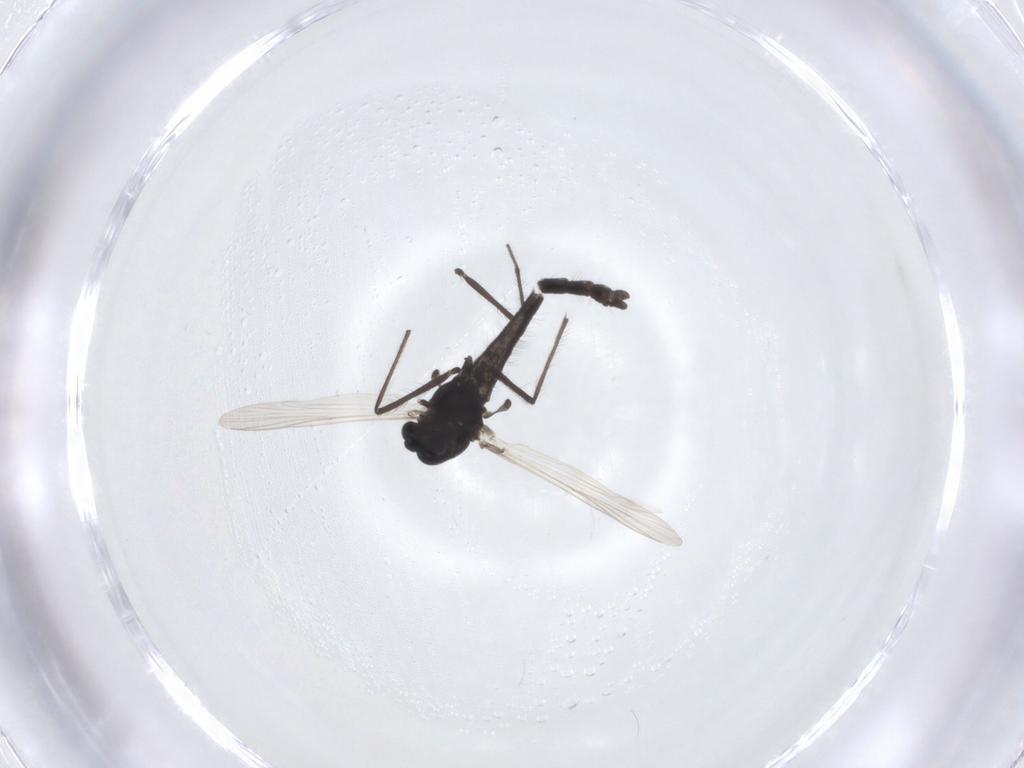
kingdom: Animalia
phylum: Arthropoda
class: Insecta
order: Diptera
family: Chironomidae
